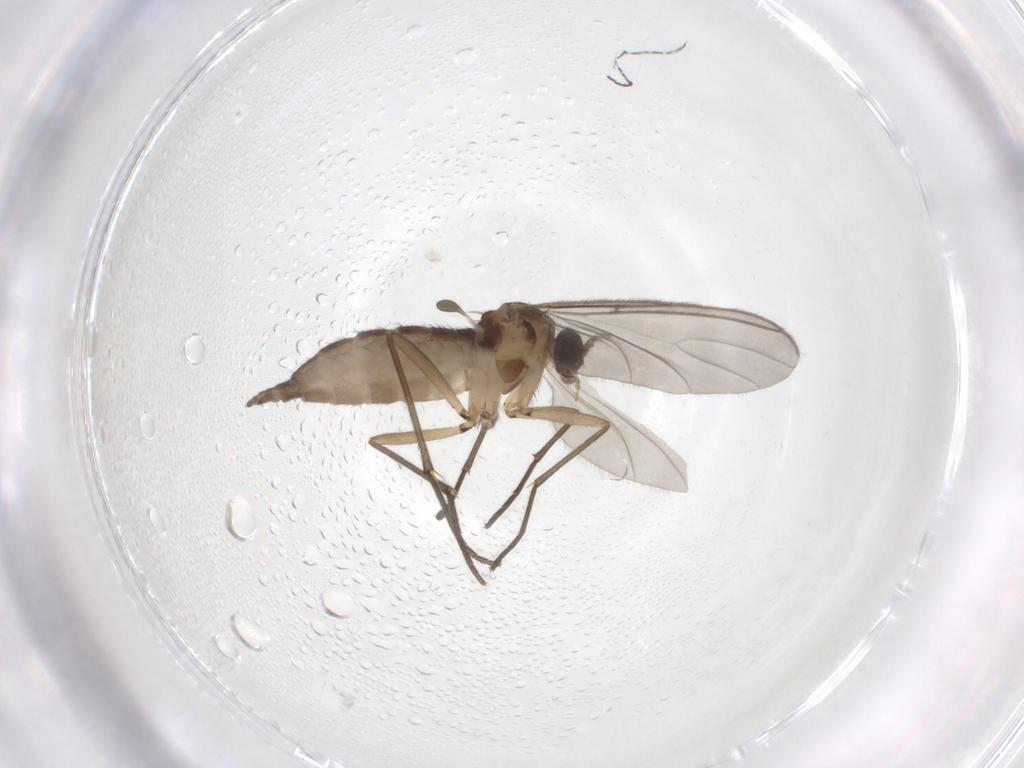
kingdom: Animalia
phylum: Arthropoda
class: Insecta
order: Diptera
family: Sciaridae
